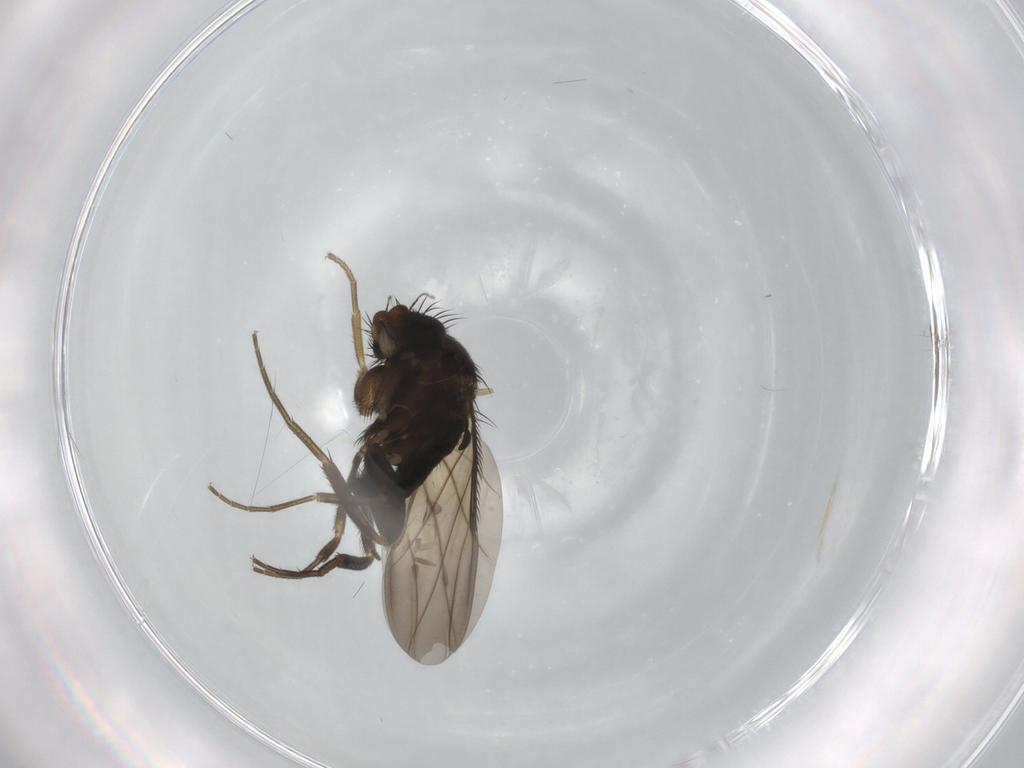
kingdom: Animalia
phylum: Arthropoda
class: Insecta
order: Diptera
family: Phoridae
